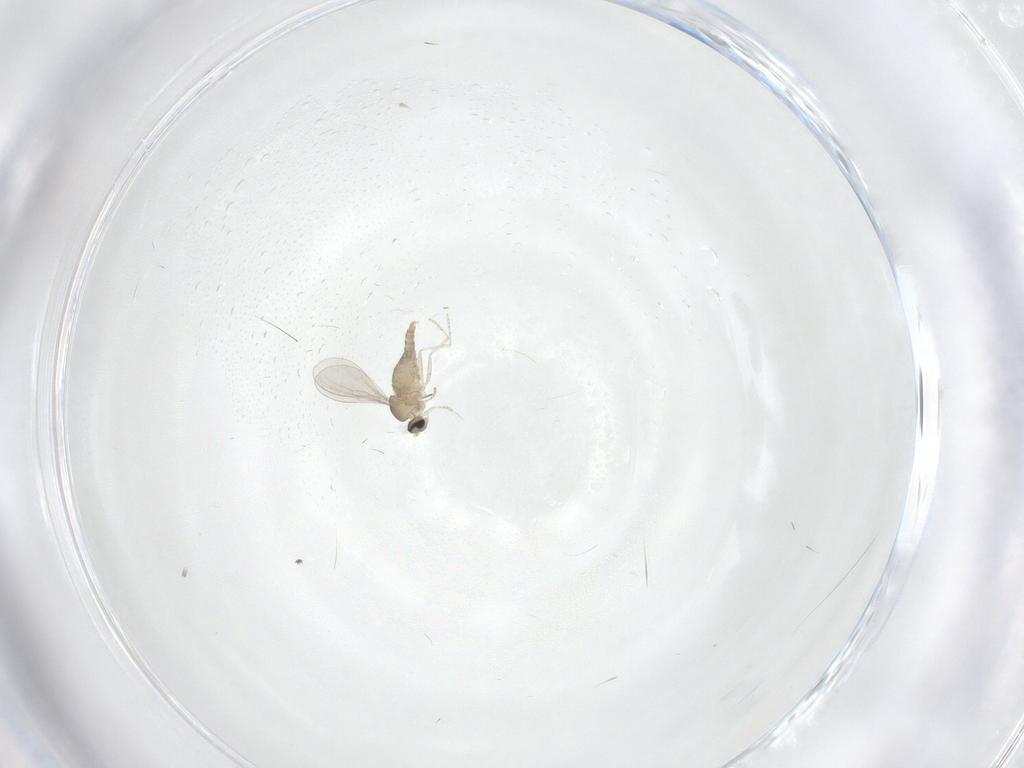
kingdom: Animalia
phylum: Arthropoda
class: Insecta
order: Diptera
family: Cecidomyiidae
